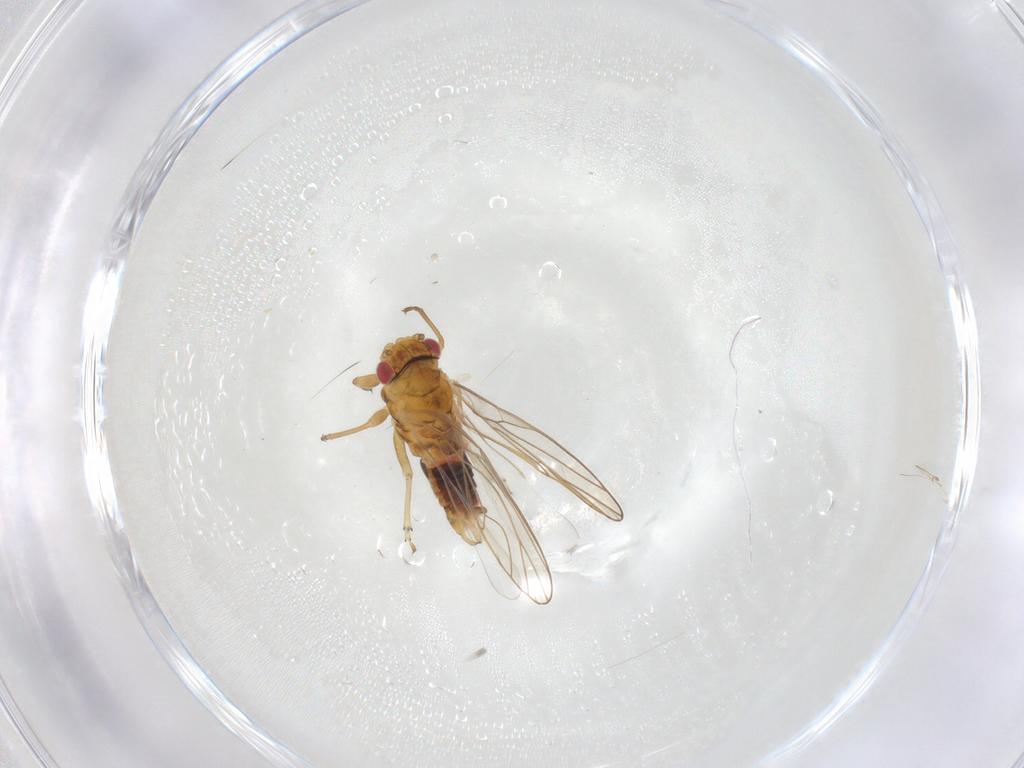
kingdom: Animalia
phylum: Arthropoda
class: Insecta
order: Hemiptera
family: Psyllidae
